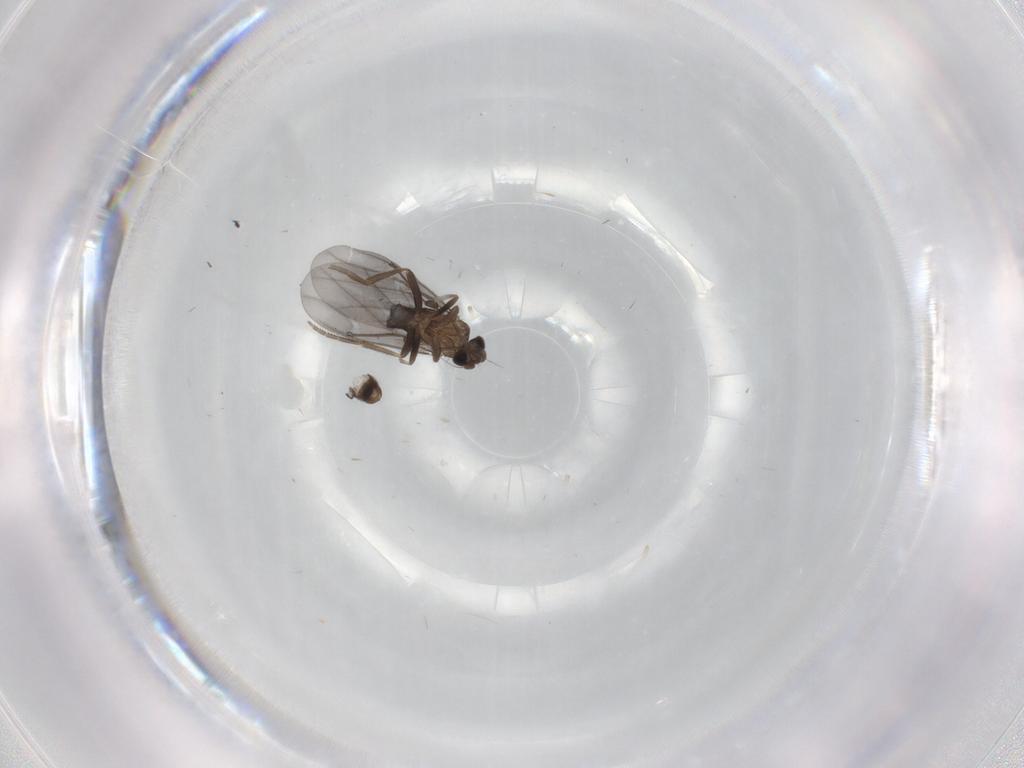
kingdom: Animalia
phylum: Arthropoda
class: Insecta
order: Diptera
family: Phoridae
